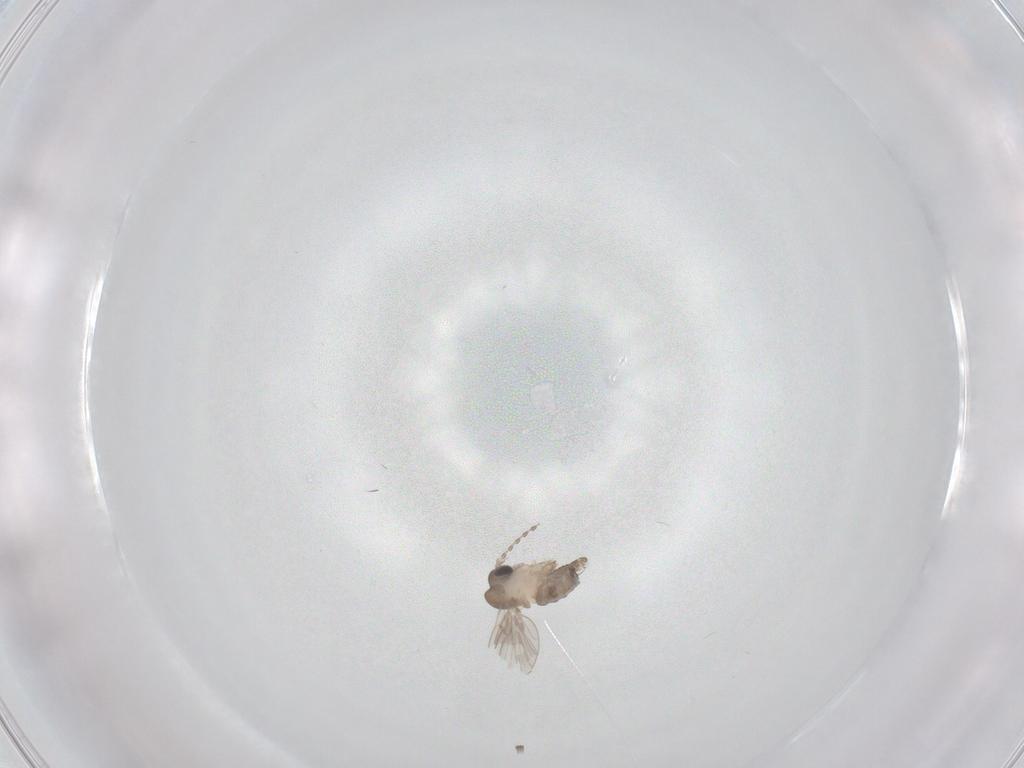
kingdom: Animalia
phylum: Arthropoda
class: Insecta
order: Diptera
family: Psychodidae
